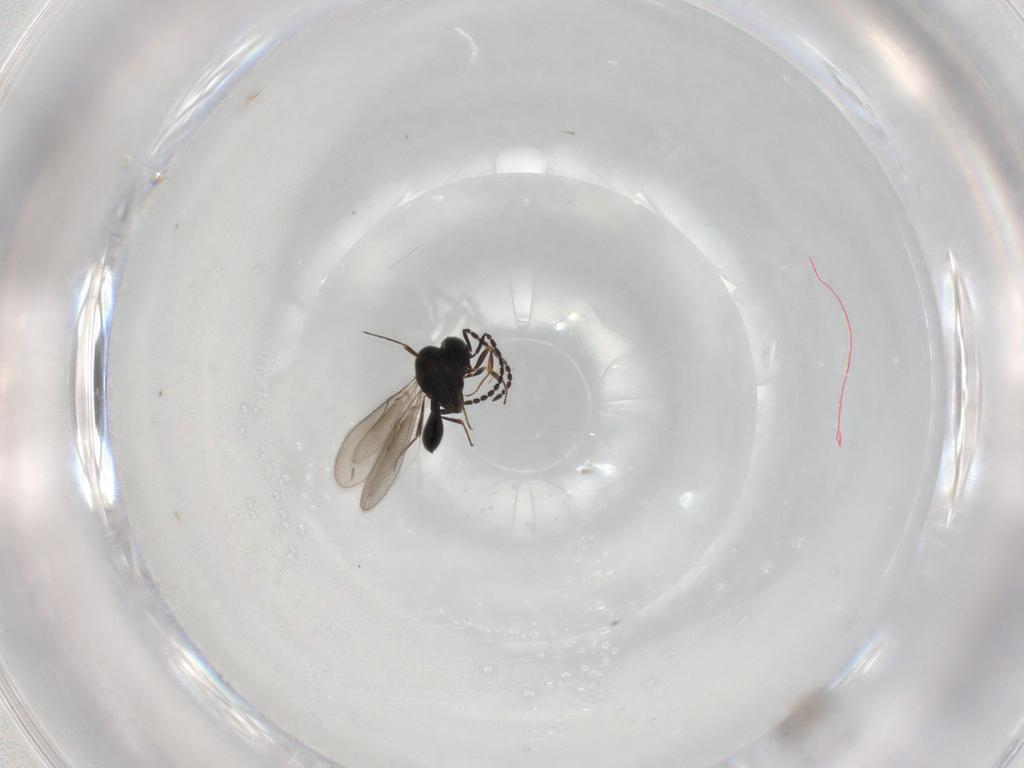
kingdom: Animalia
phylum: Arthropoda
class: Insecta
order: Hymenoptera
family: Scelionidae
